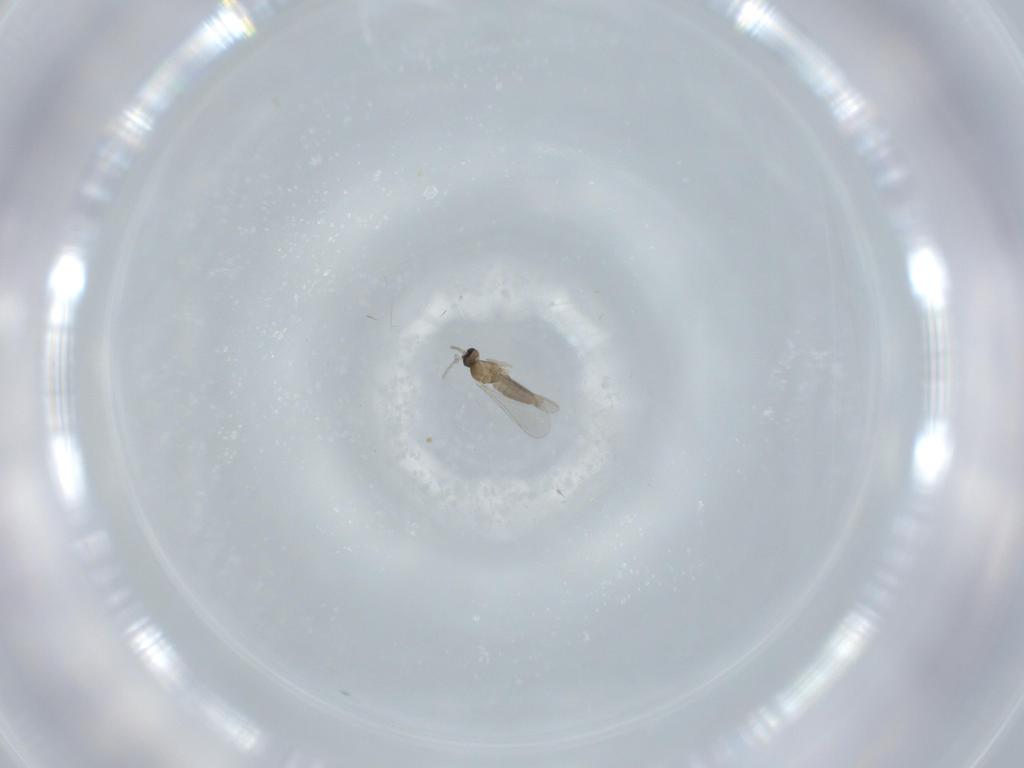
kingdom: Animalia
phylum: Arthropoda
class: Insecta
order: Diptera
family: Cecidomyiidae
